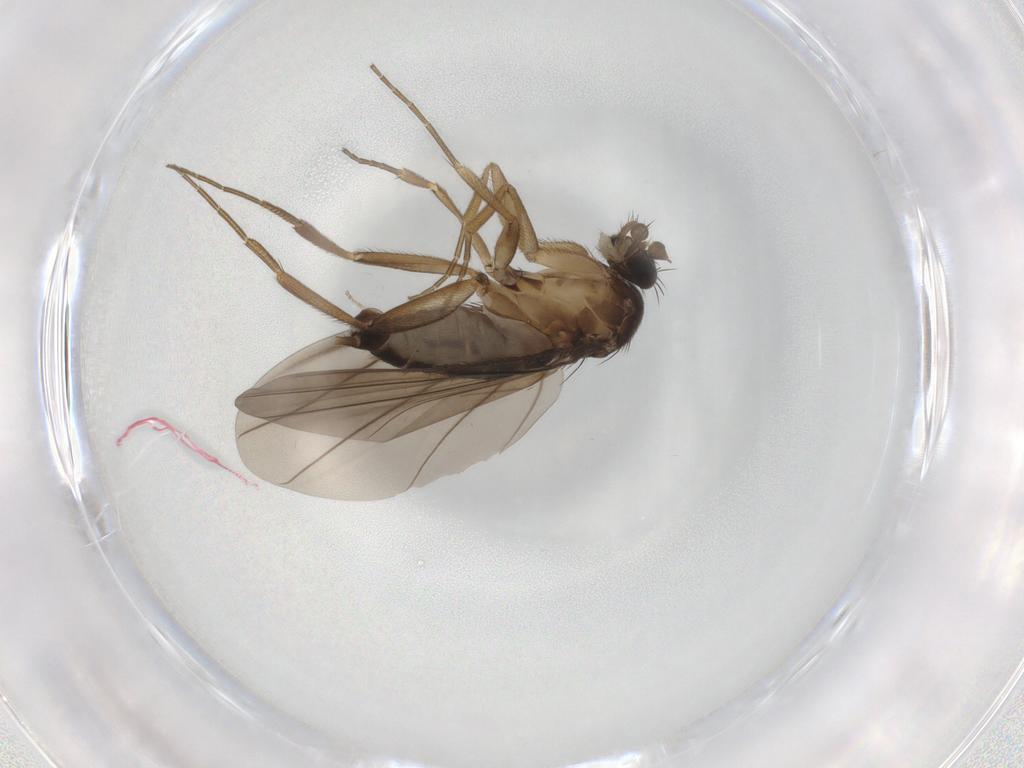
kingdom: Animalia
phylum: Arthropoda
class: Insecta
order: Diptera
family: Phoridae
